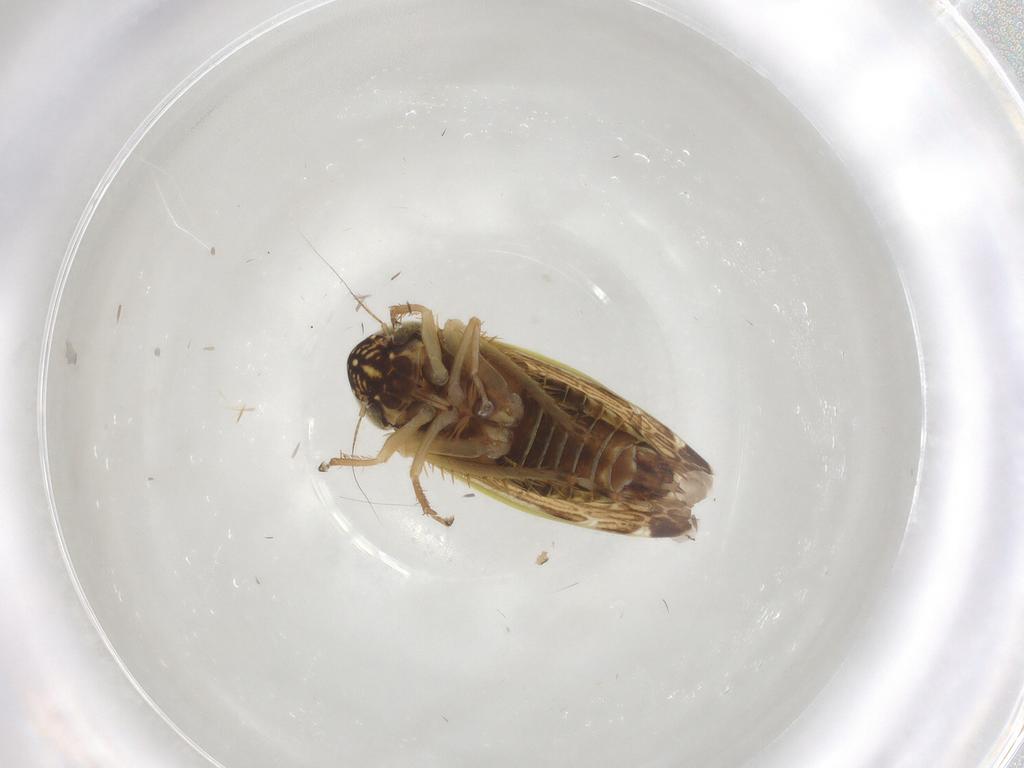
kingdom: Animalia
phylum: Arthropoda
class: Insecta
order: Hemiptera
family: Cicadellidae
